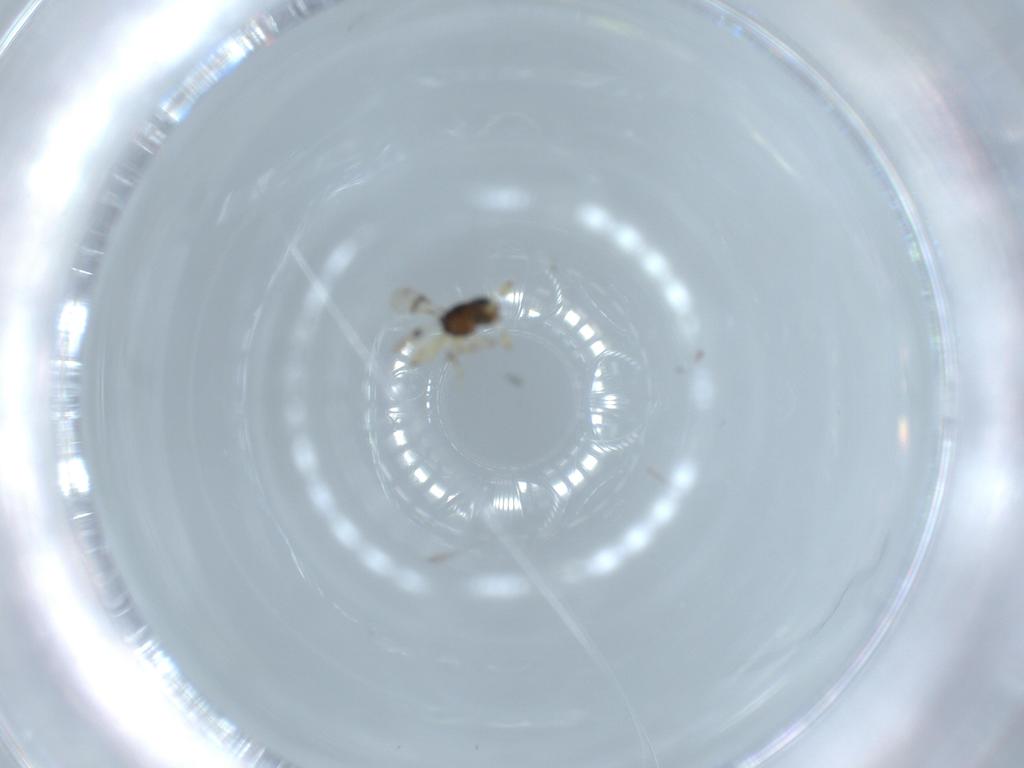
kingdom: Animalia
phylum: Arthropoda
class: Insecta
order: Hymenoptera
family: Scelionidae
